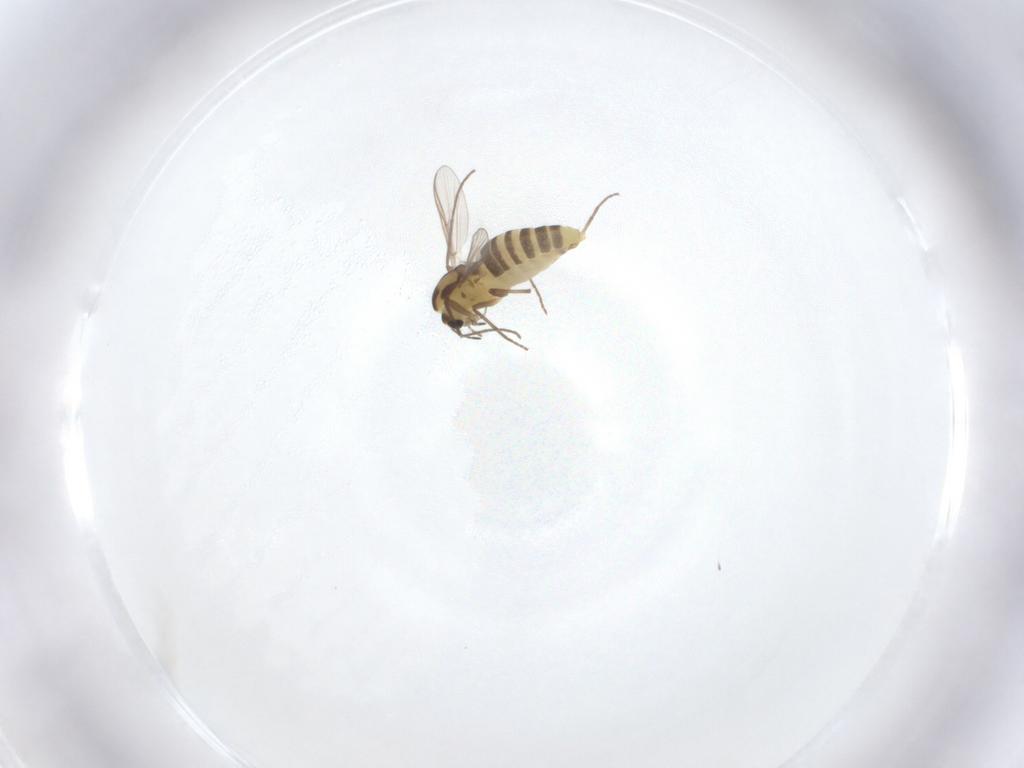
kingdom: Animalia
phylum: Arthropoda
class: Insecta
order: Diptera
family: Chironomidae
